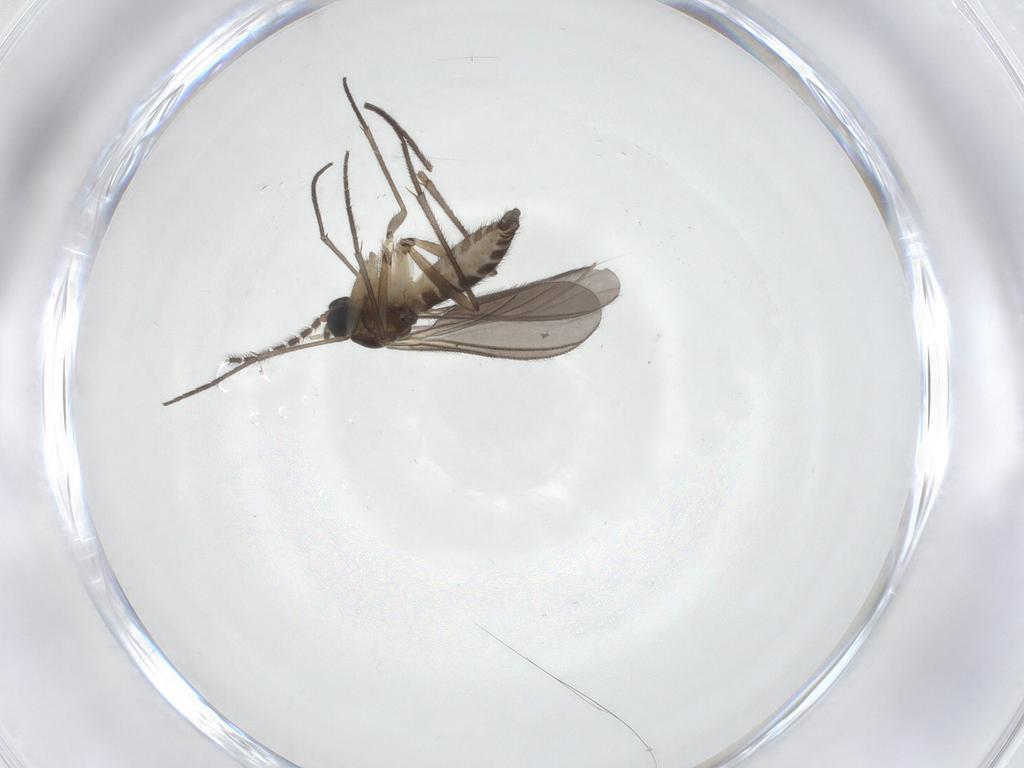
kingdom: Animalia
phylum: Arthropoda
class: Insecta
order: Diptera
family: Sciaridae
